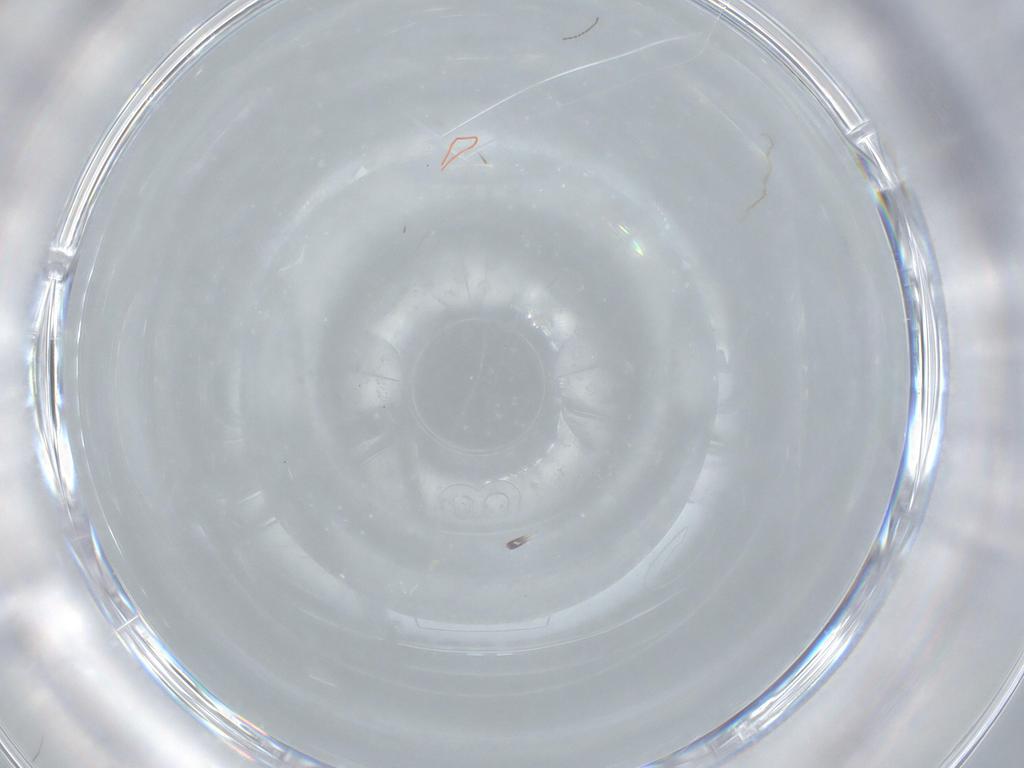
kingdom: Animalia
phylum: Arthropoda
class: Insecta
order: Diptera
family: Cecidomyiidae
